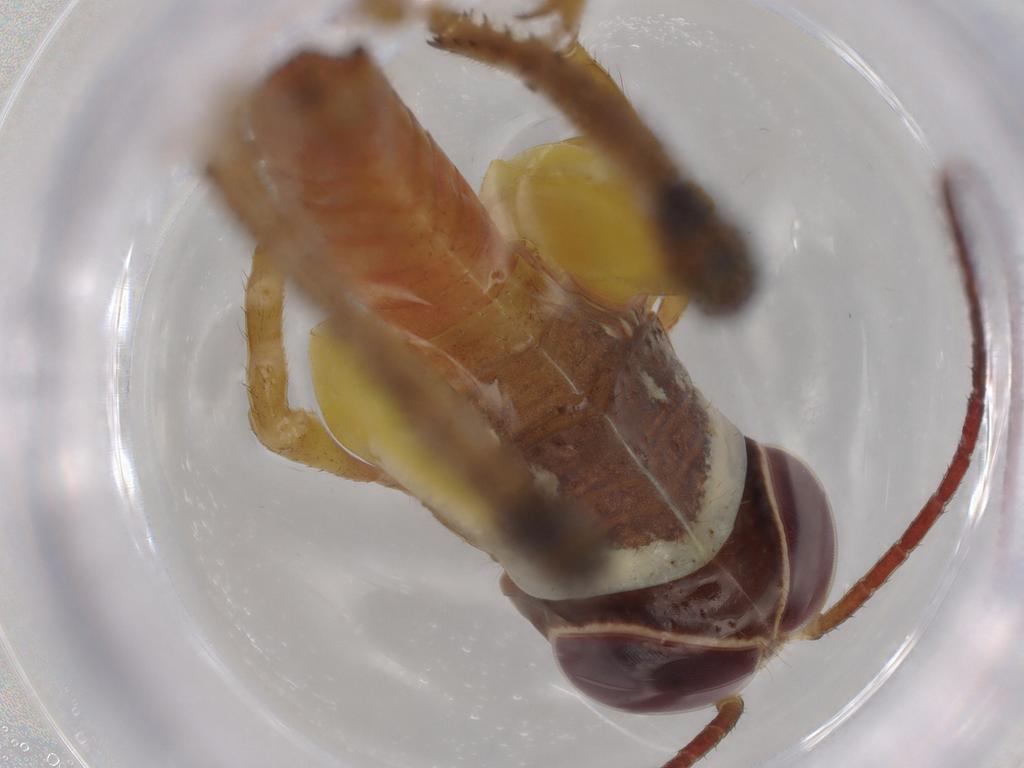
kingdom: Animalia
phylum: Arthropoda
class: Insecta
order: Orthoptera
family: Acrididae
